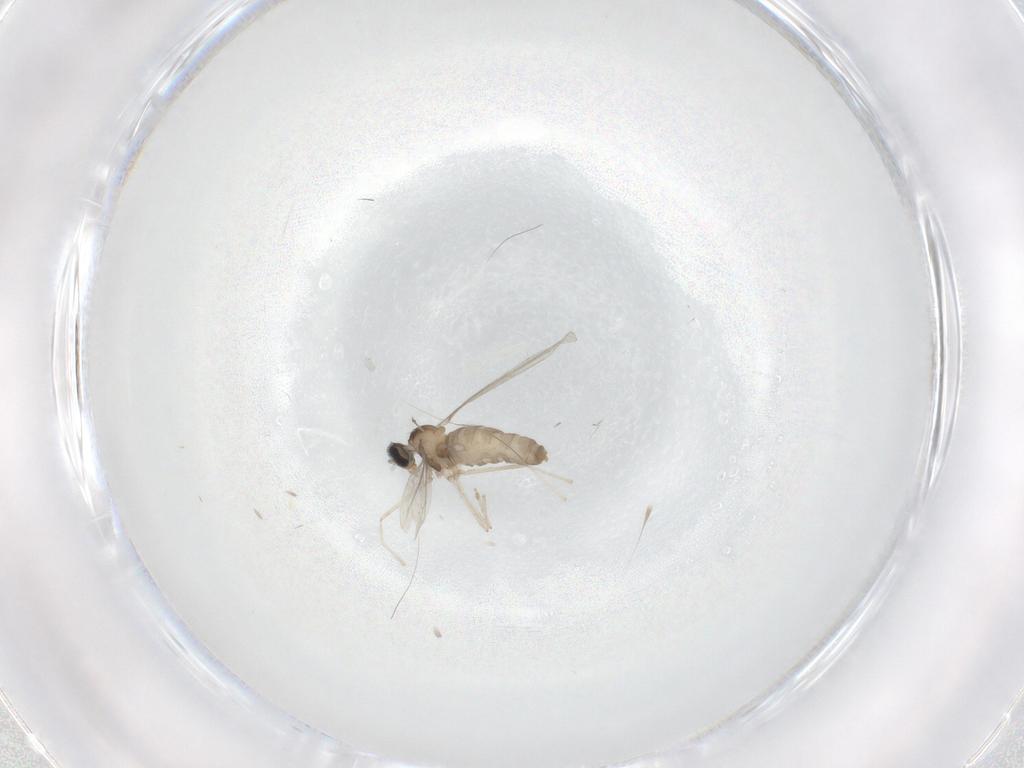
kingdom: Animalia
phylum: Arthropoda
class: Insecta
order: Diptera
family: Cecidomyiidae
